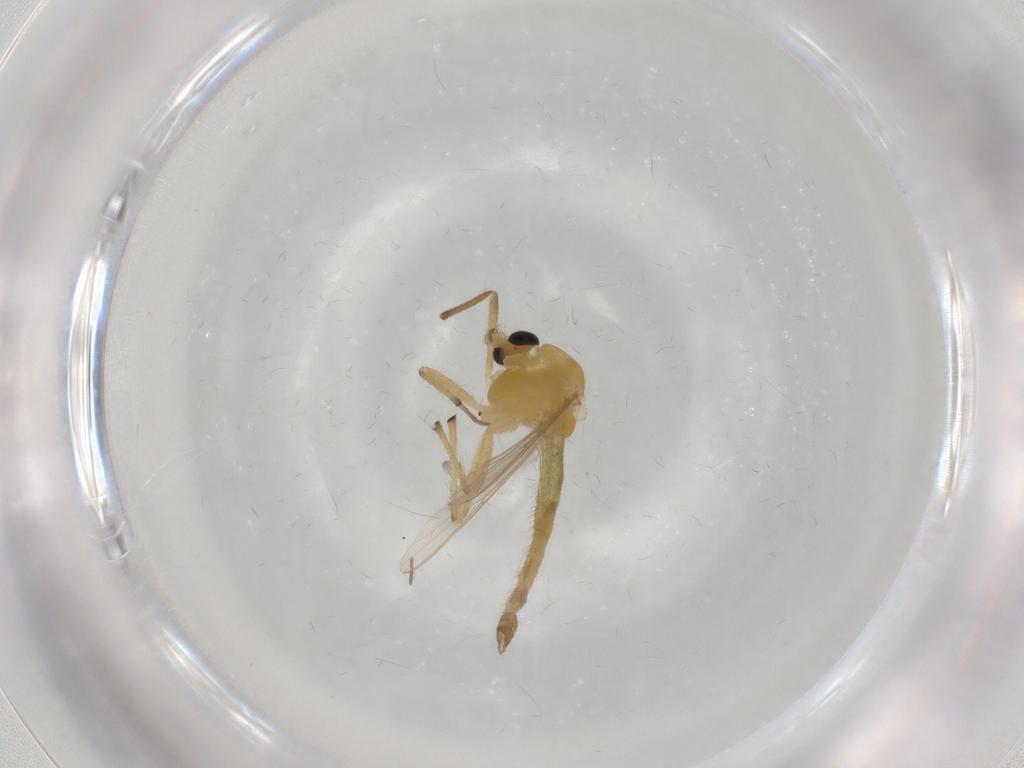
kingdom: Animalia
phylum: Arthropoda
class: Insecta
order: Diptera
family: Chironomidae
